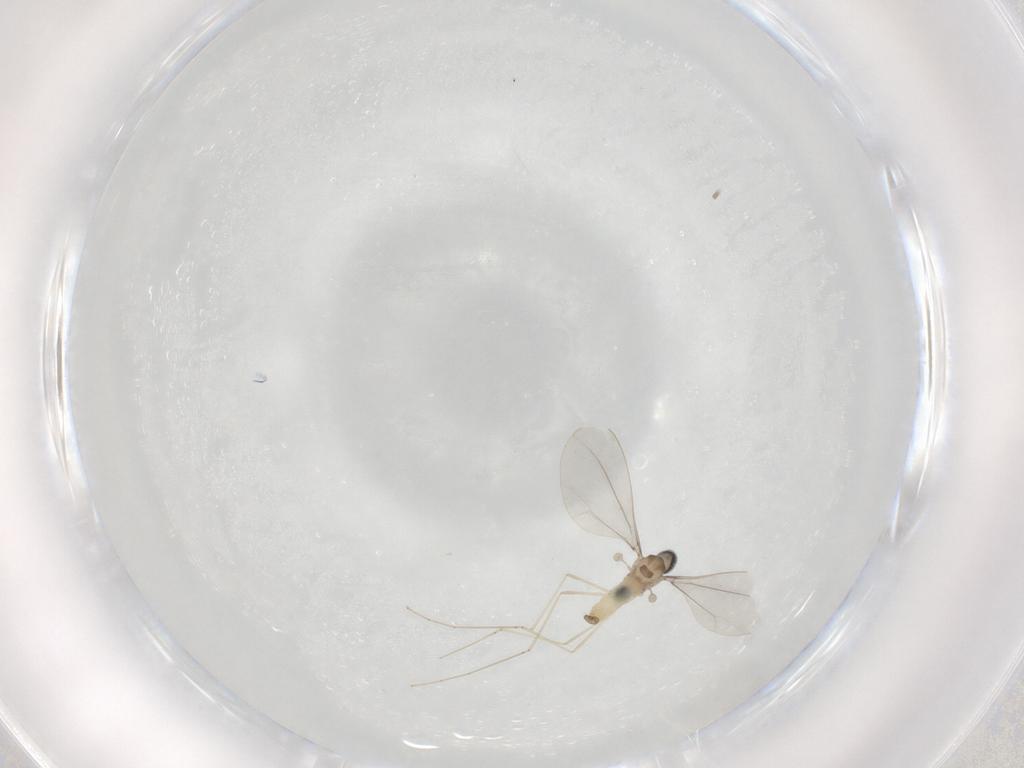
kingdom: Animalia
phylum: Arthropoda
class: Insecta
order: Diptera
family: Cecidomyiidae
